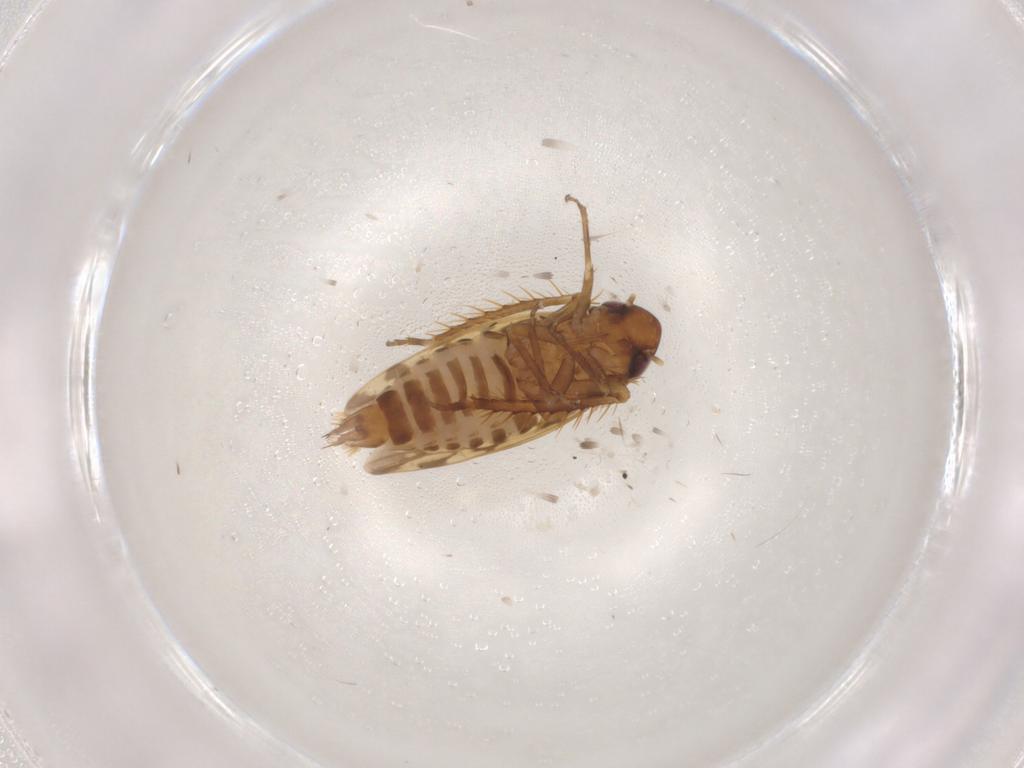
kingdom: Animalia
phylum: Arthropoda
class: Insecta
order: Hemiptera
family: Cicadellidae
